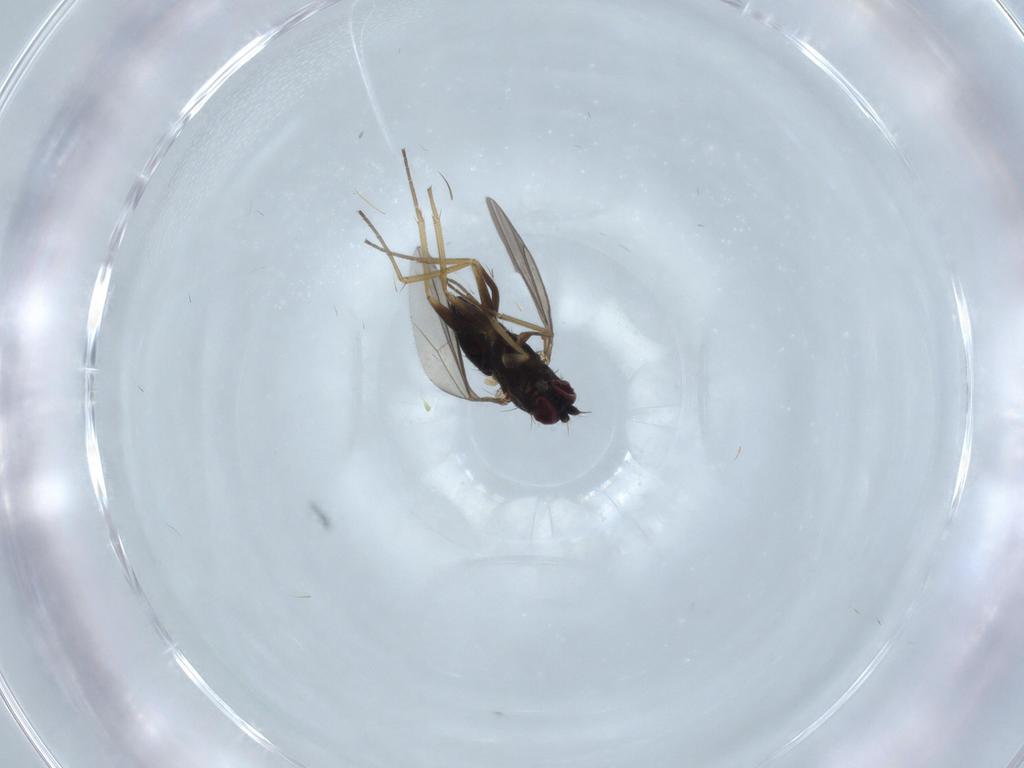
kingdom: Animalia
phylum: Arthropoda
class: Insecta
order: Diptera
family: Dolichopodidae
